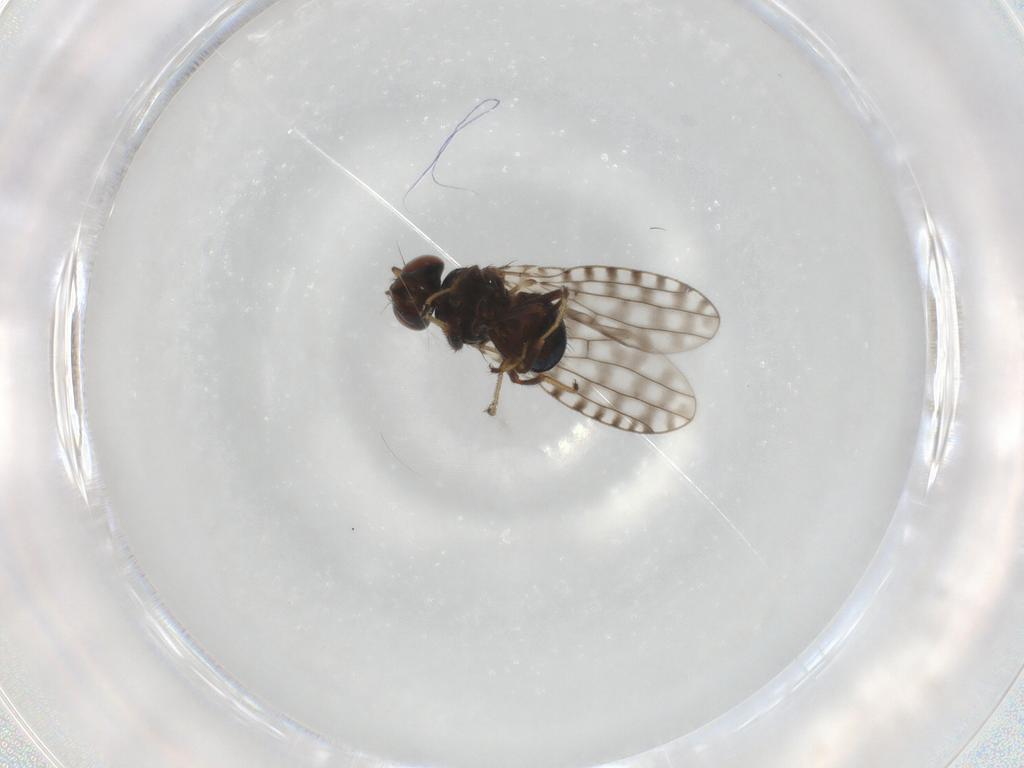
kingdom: Animalia
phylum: Arthropoda
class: Insecta
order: Diptera
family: Ephydridae
